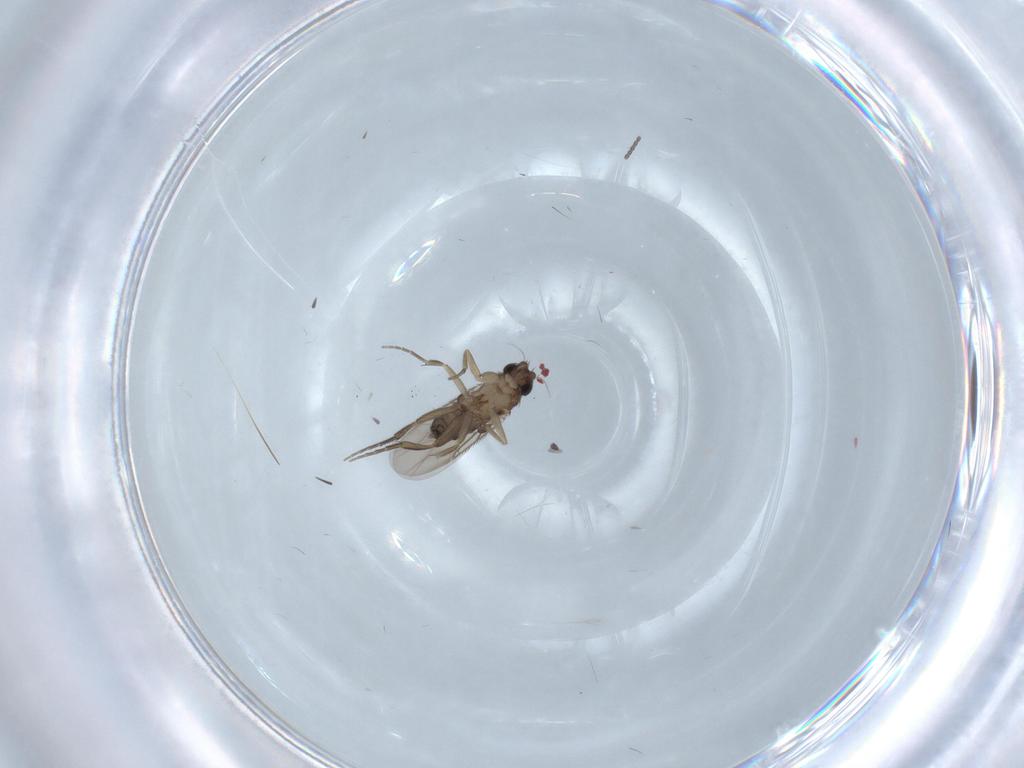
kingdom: Animalia
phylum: Arthropoda
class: Insecta
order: Diptera
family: Phoridae
